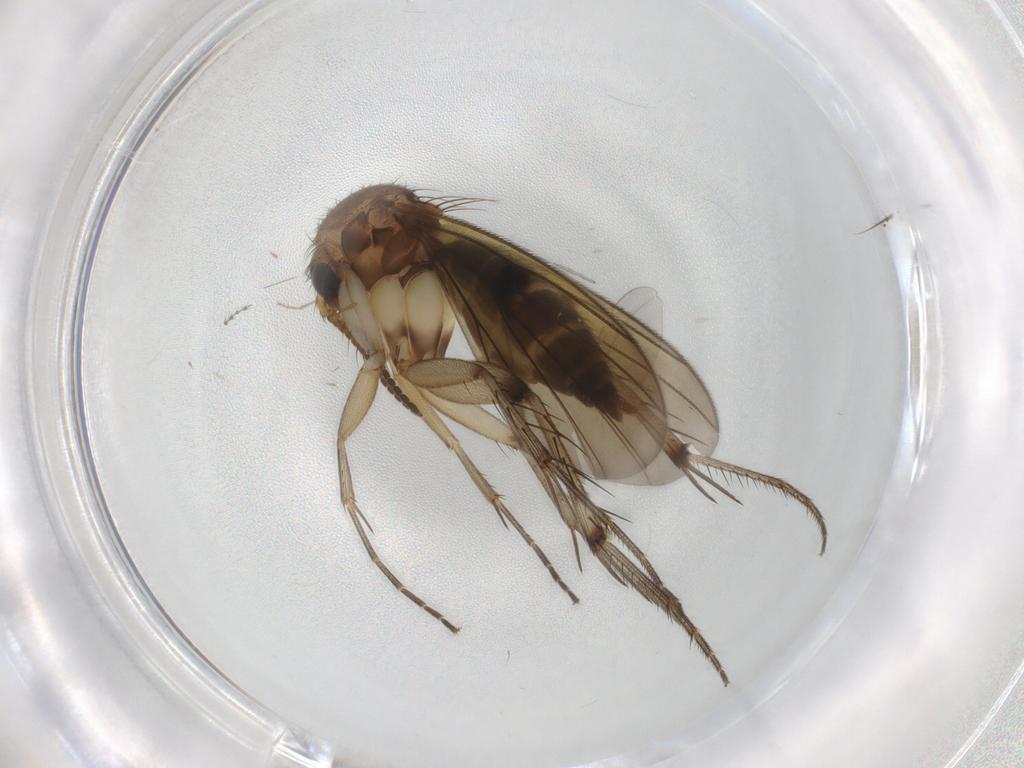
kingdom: Animalia
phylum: Arthropoda
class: Insecta
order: Diptera
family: Mycetophilidae
